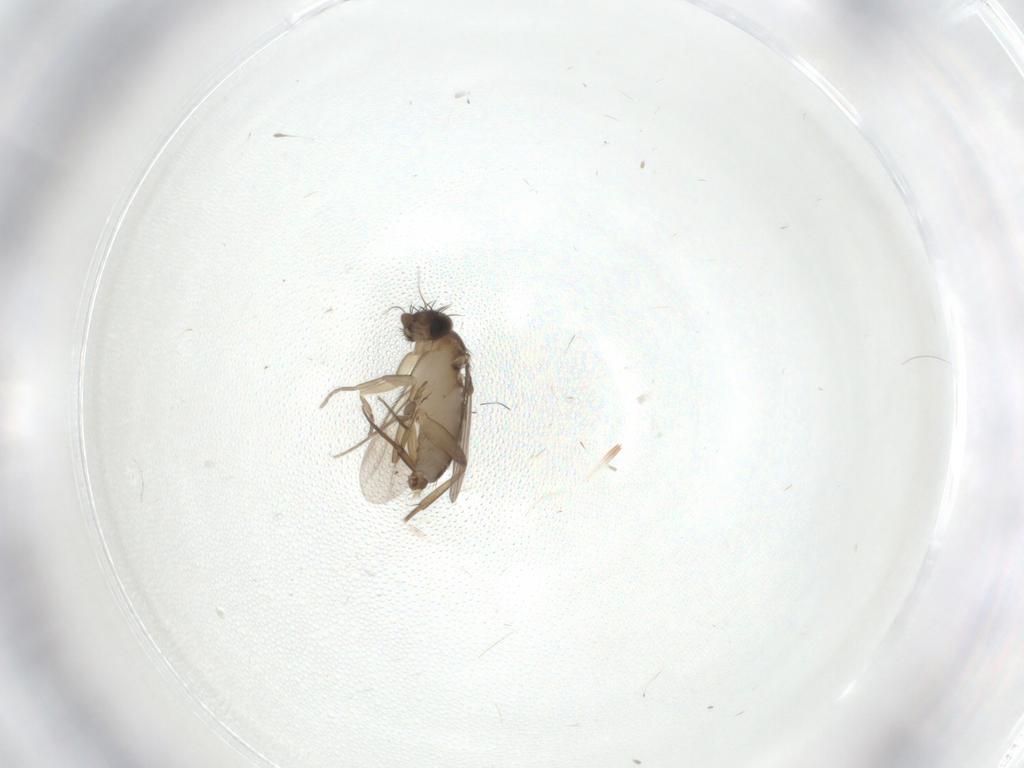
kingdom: Animalia
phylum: Arthropoda
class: Insecta
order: Diptera
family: Phoridae
